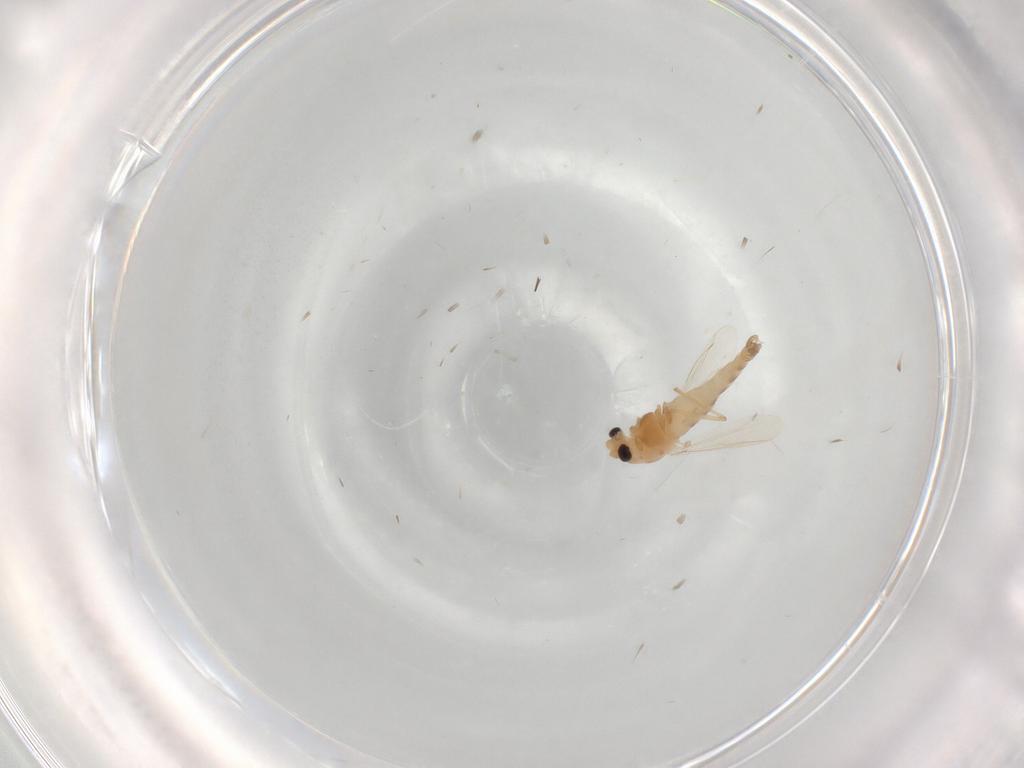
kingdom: Animalia
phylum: Arthropoda
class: Insecta
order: Diptera
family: Chironomidae
